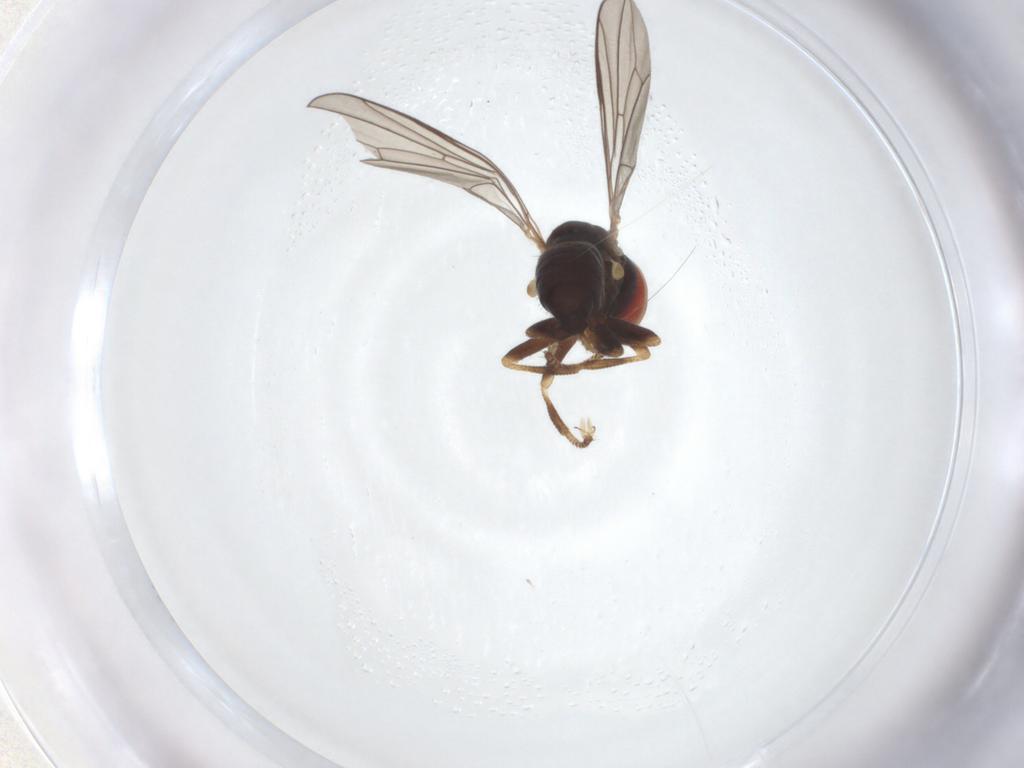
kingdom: Animalia
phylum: Arthropoda
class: Insecta
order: Diptera
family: Pipunculidae
